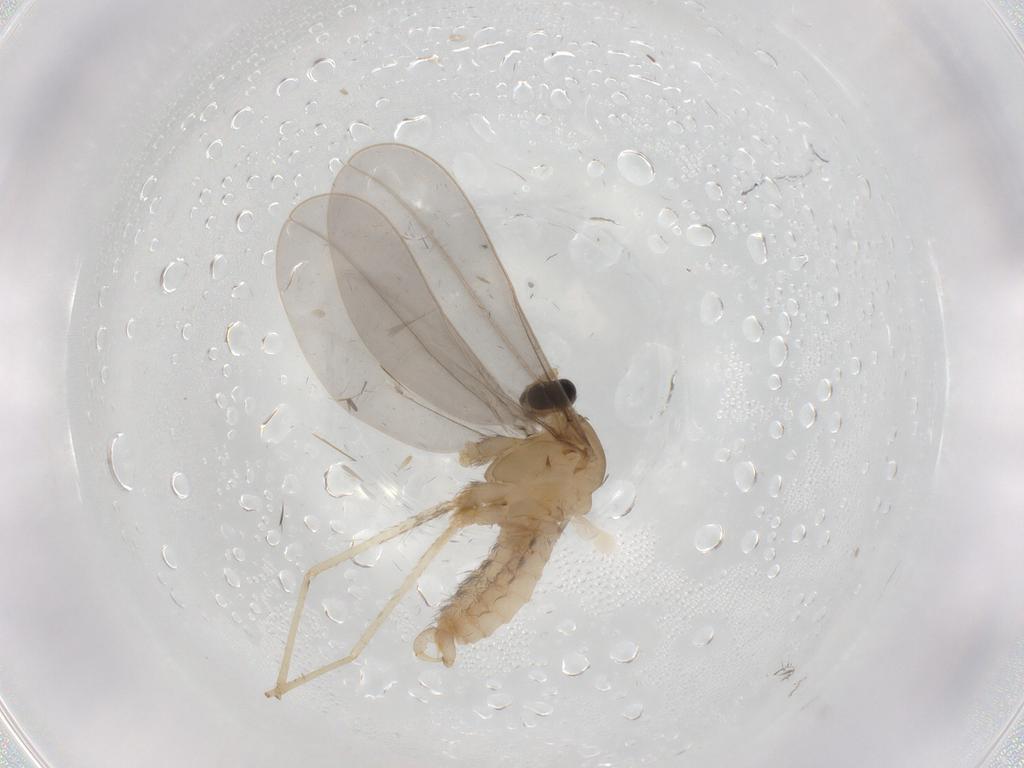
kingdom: Animalia
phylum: Arthropoda
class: Insecta
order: Diptera
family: Cecidomyiidae
